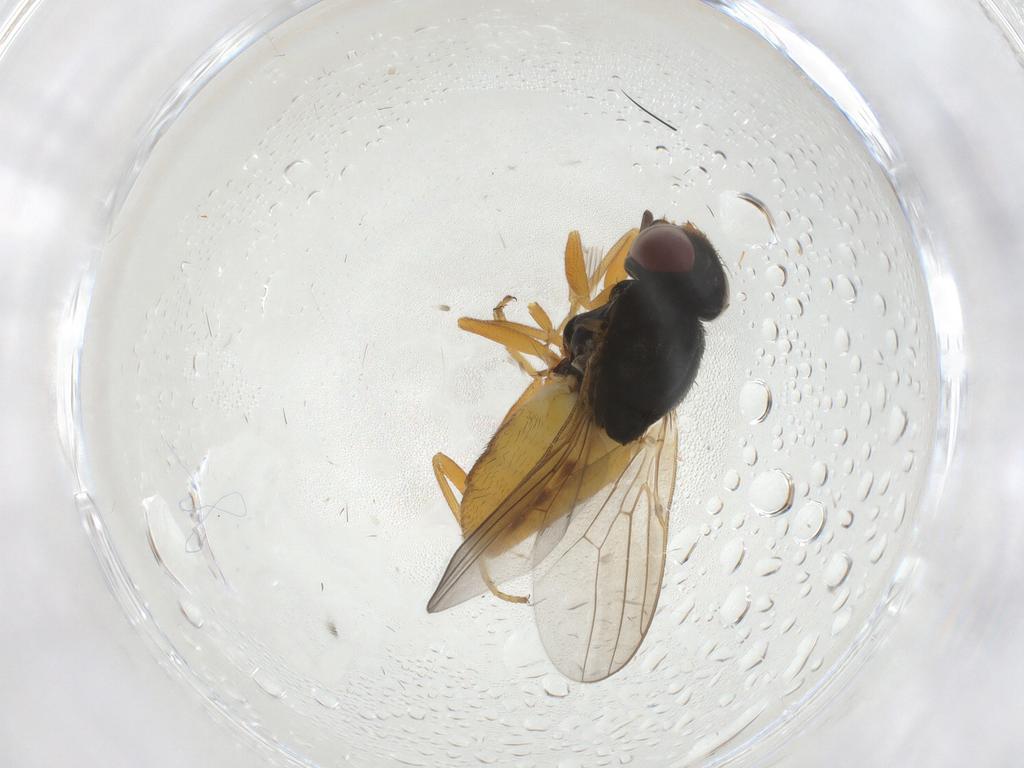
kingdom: Animalia
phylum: Arthropoda
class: Insecta
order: Diptera
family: Chloropidae
